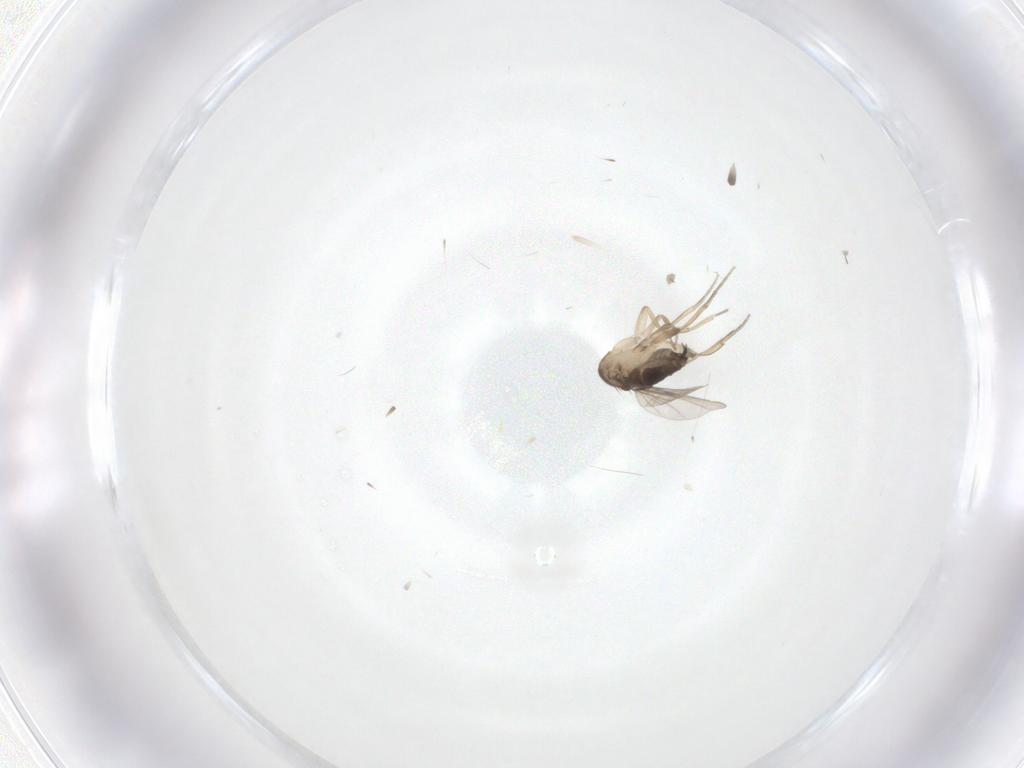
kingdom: Animalia
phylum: Arthropoda
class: Insecta
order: Diptera
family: Phoridae
